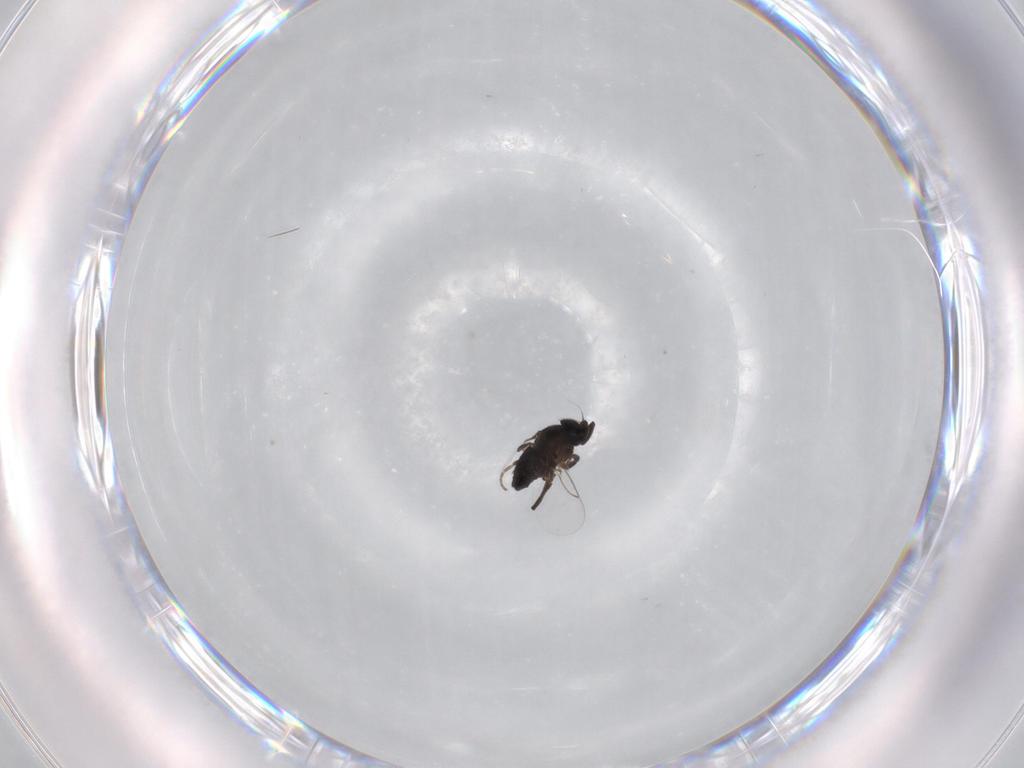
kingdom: Animalia
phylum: Arthropoda
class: Insecta
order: Diptera
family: Phoridae
